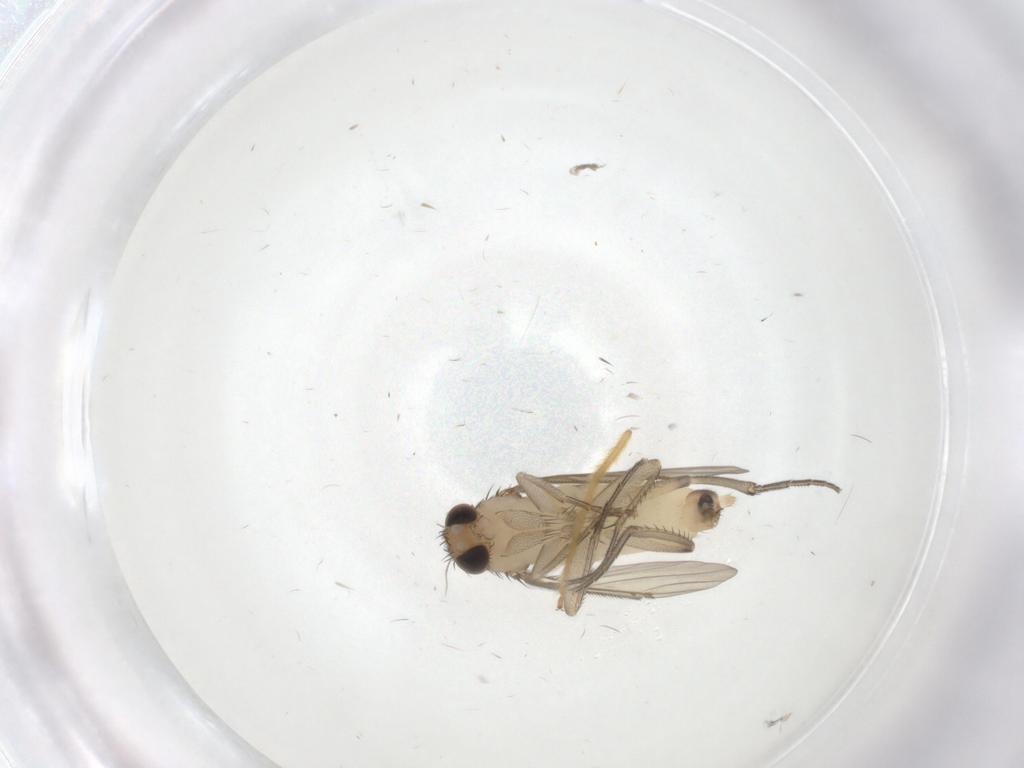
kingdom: Animalia
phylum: Arthropoda
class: Insecta
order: Diptera
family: Phoridae
